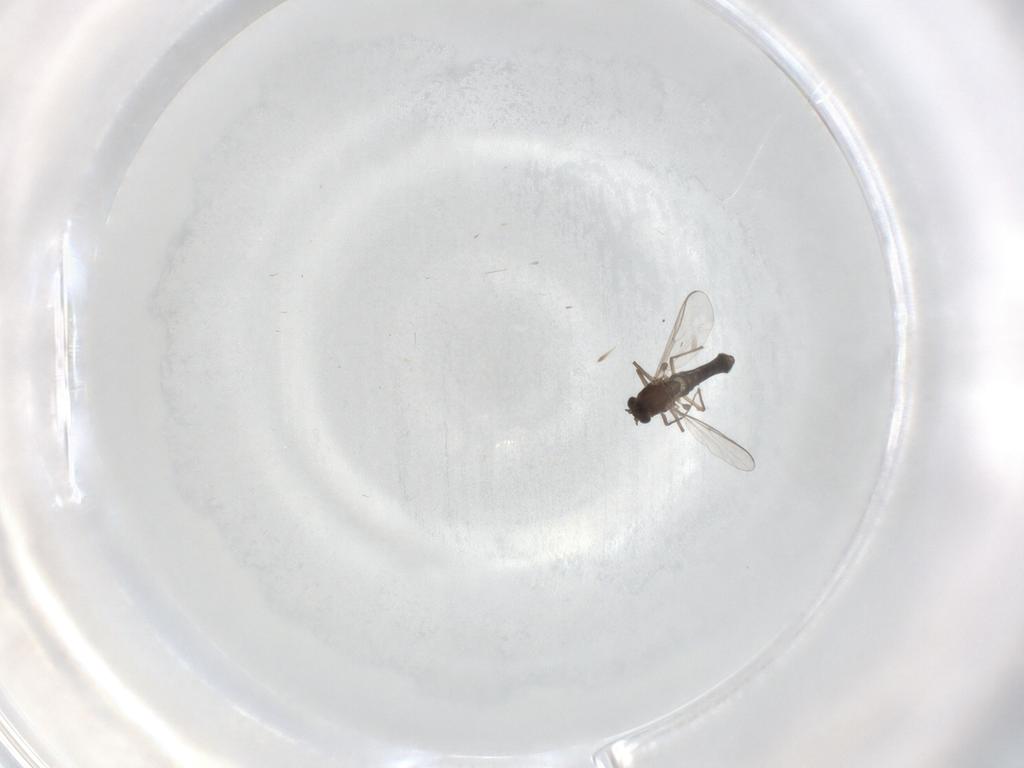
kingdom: Animalia
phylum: Arthropoda
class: Insecta
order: Diptera
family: Chironomidae
